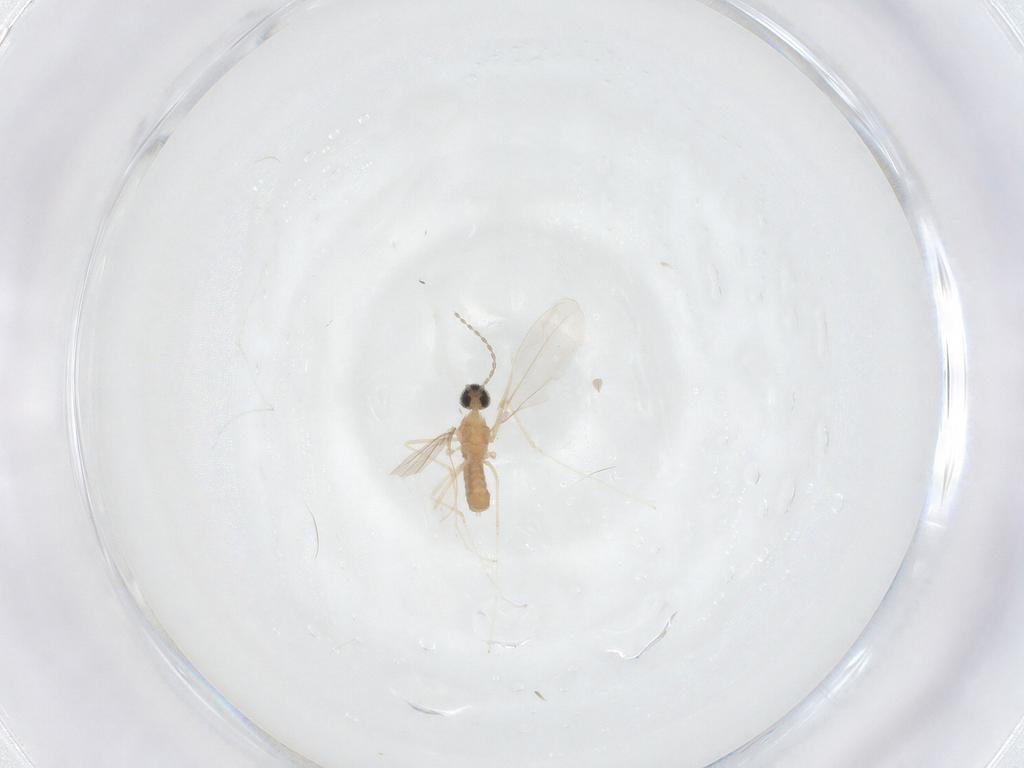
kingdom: Animalia
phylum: Arthropoda
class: Insecta
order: Diptera
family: Cecidomyiidae
